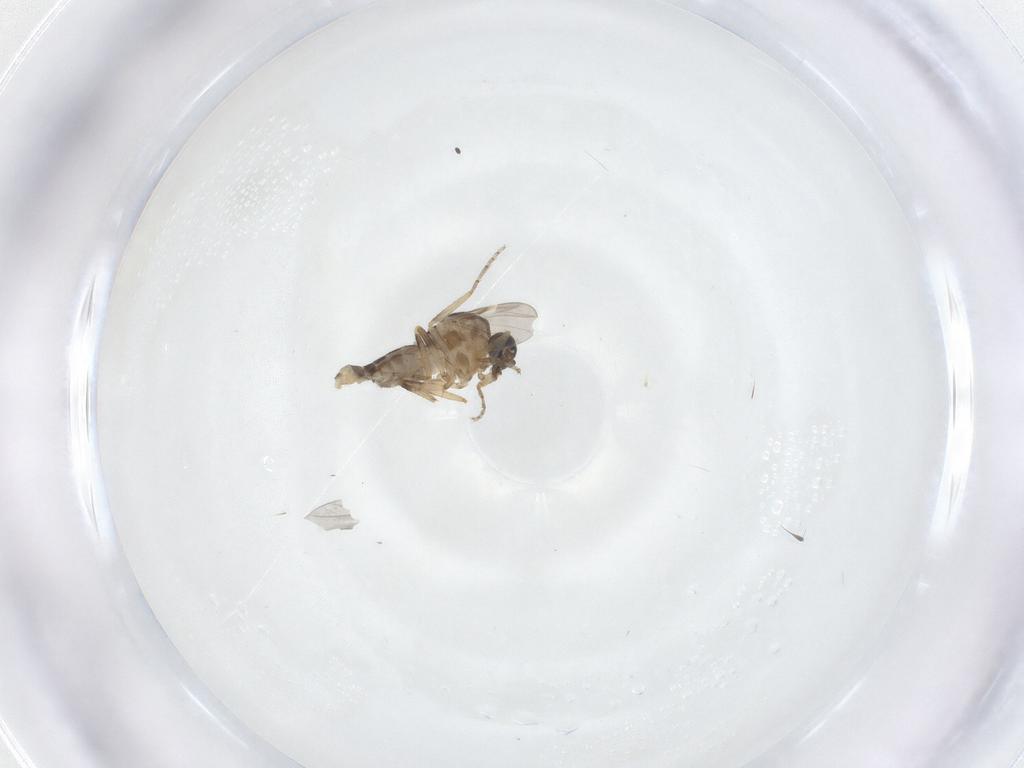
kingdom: Animalia
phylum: Arthropoda
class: Insecta
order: Diptera
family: Ceratopogonidae
